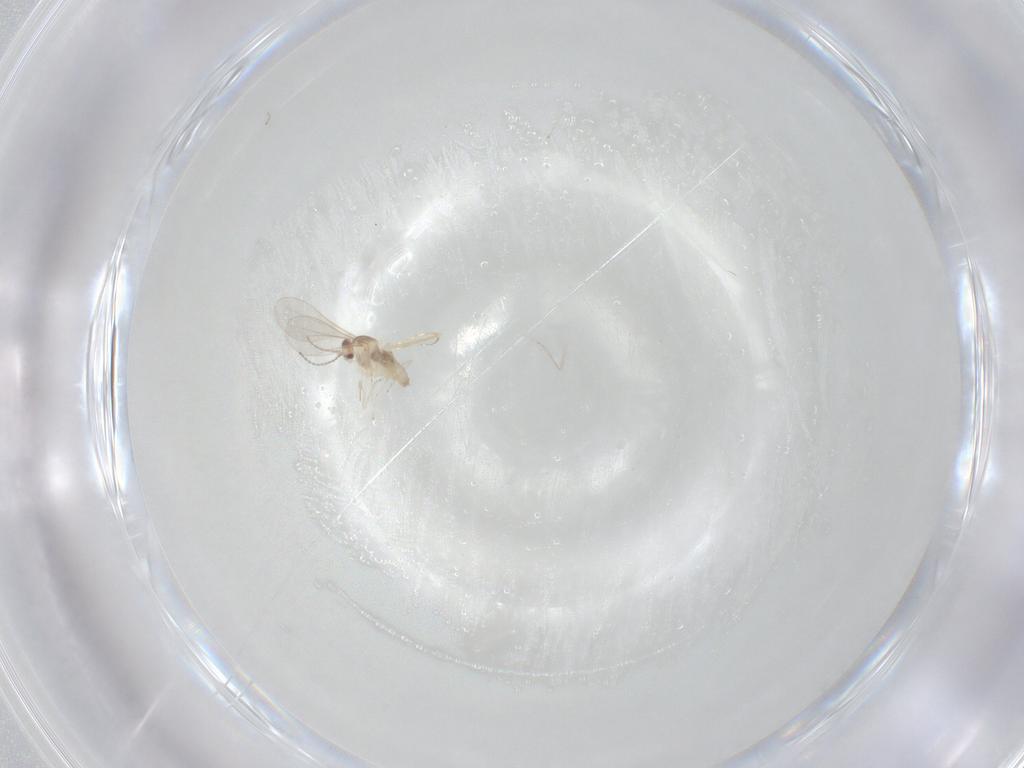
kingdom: Animalia
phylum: Arthropoda
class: Insecta
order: Diptera
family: Cecidomyiidae
